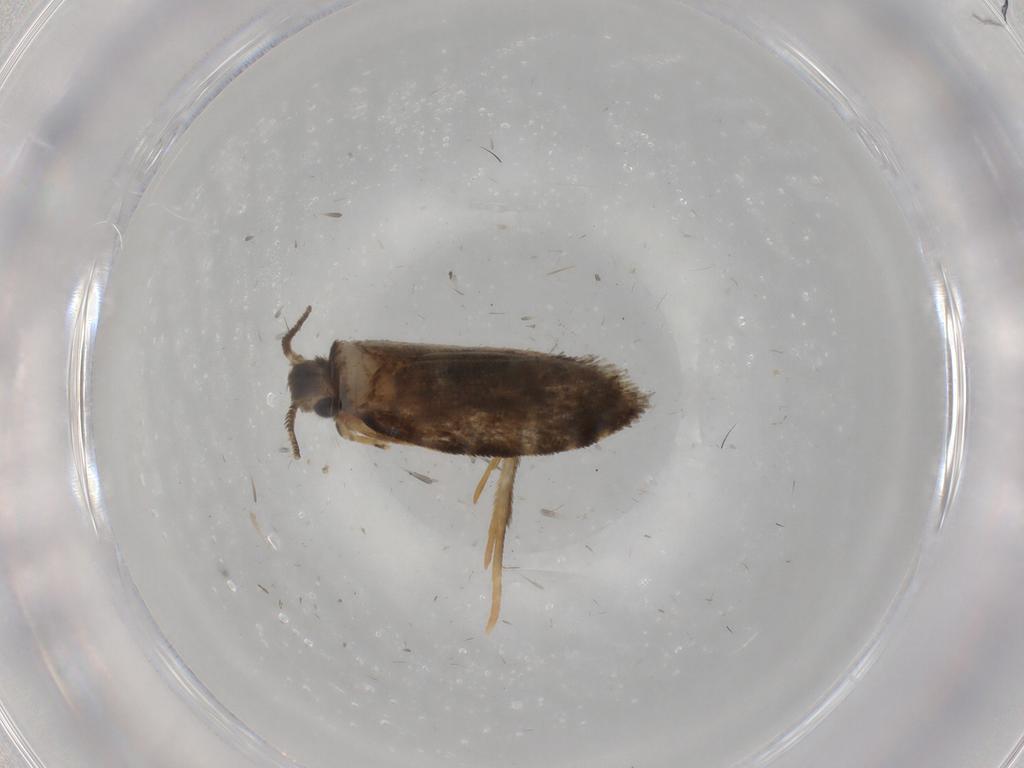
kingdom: Animalia
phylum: Arthropoda
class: Insecta
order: Lepidoptera
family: Psychidae
